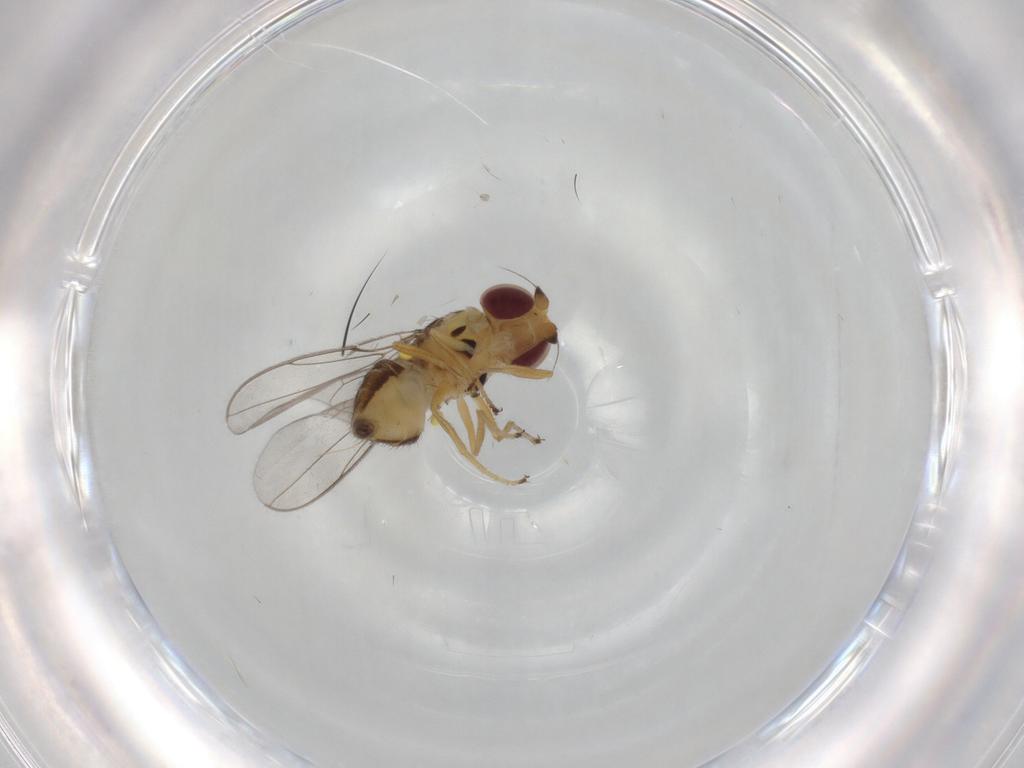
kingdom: Animalia
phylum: Arthropoda
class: Insecta
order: Diptera
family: Chloropidae
